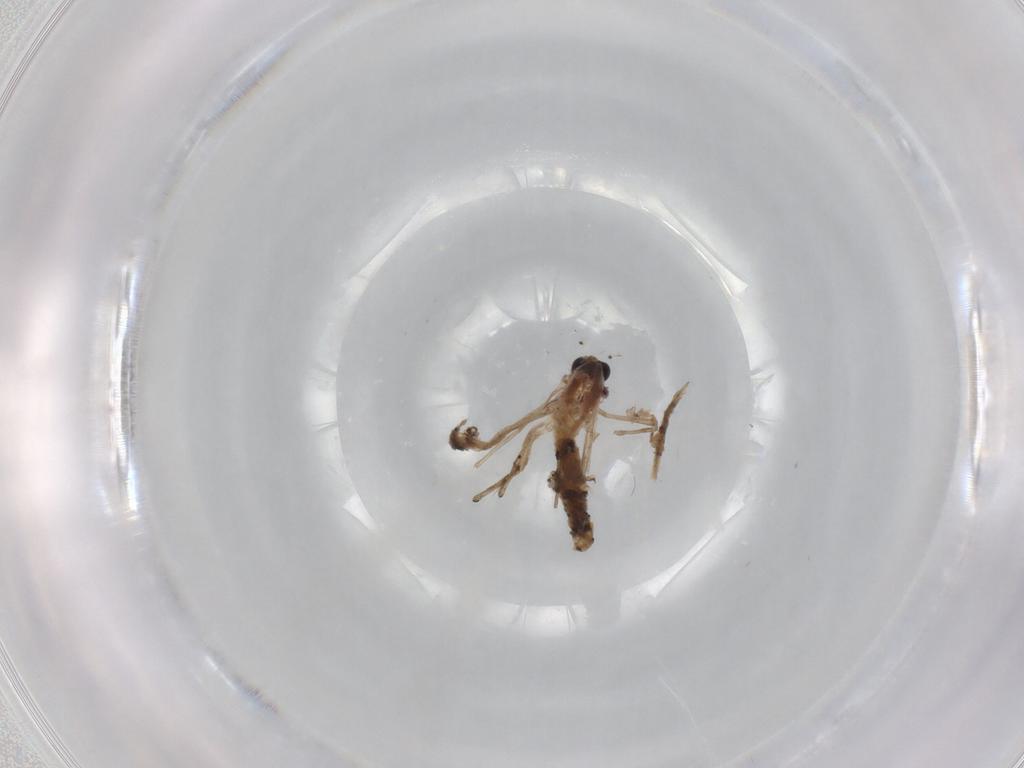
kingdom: Animalia
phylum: Arthropoda
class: Insecta
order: Diptera
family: Chironomidae
